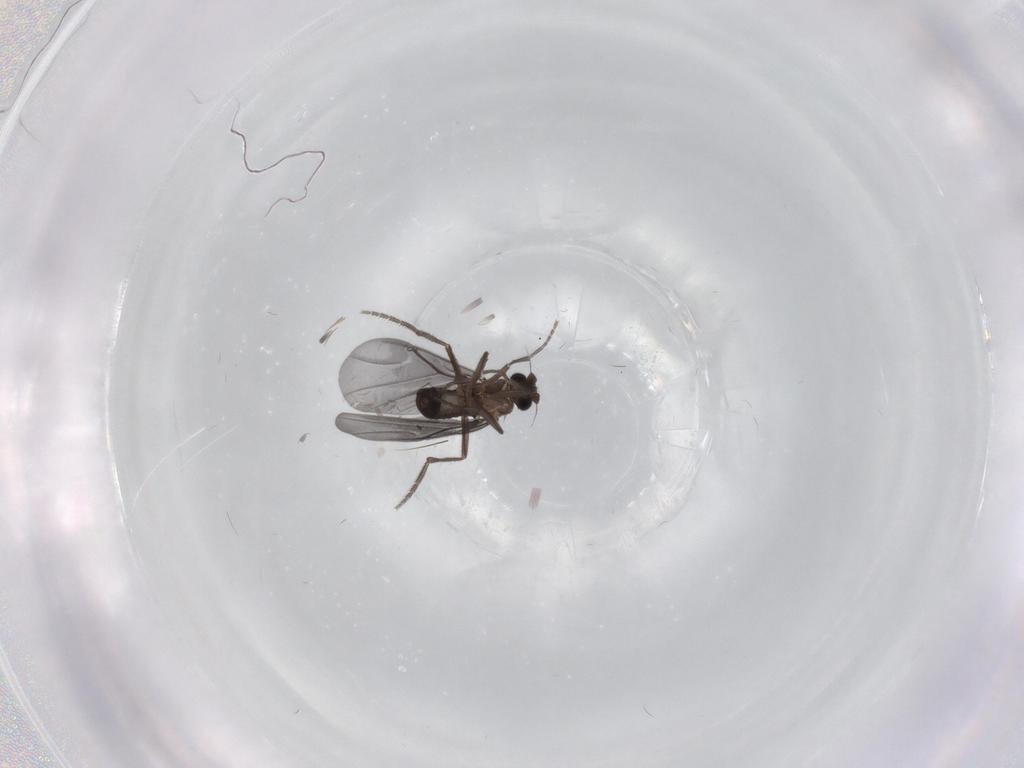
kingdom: Animalia
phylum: Arthropoda
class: Insecta
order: Diptera
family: Phoridae
